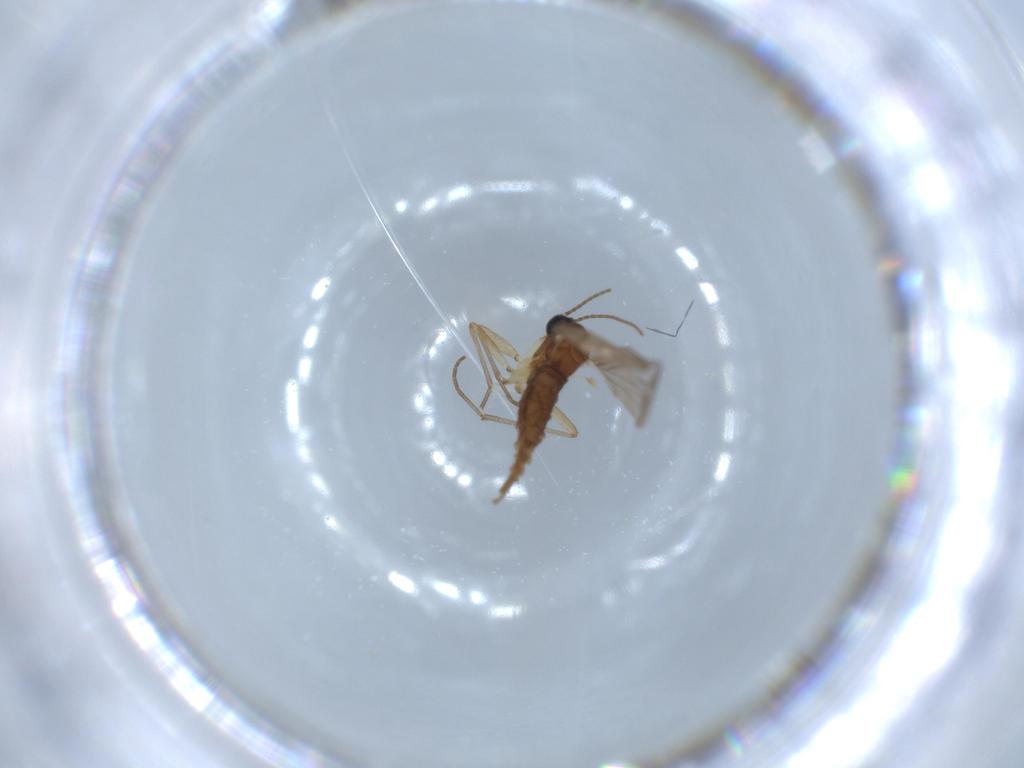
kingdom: Animalia
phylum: Arthropoda
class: Insecta
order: Diptera
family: Sciaridae
